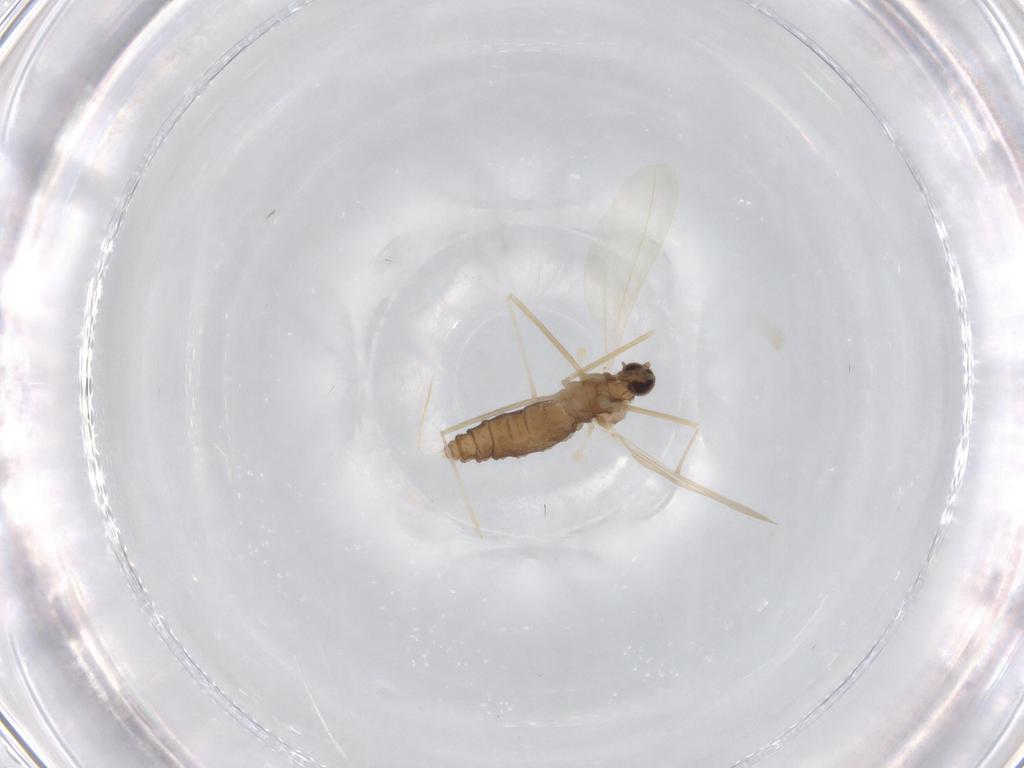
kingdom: Animalia
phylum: Arthropoda
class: Insecta
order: Diptera
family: Cecidomyiidae
